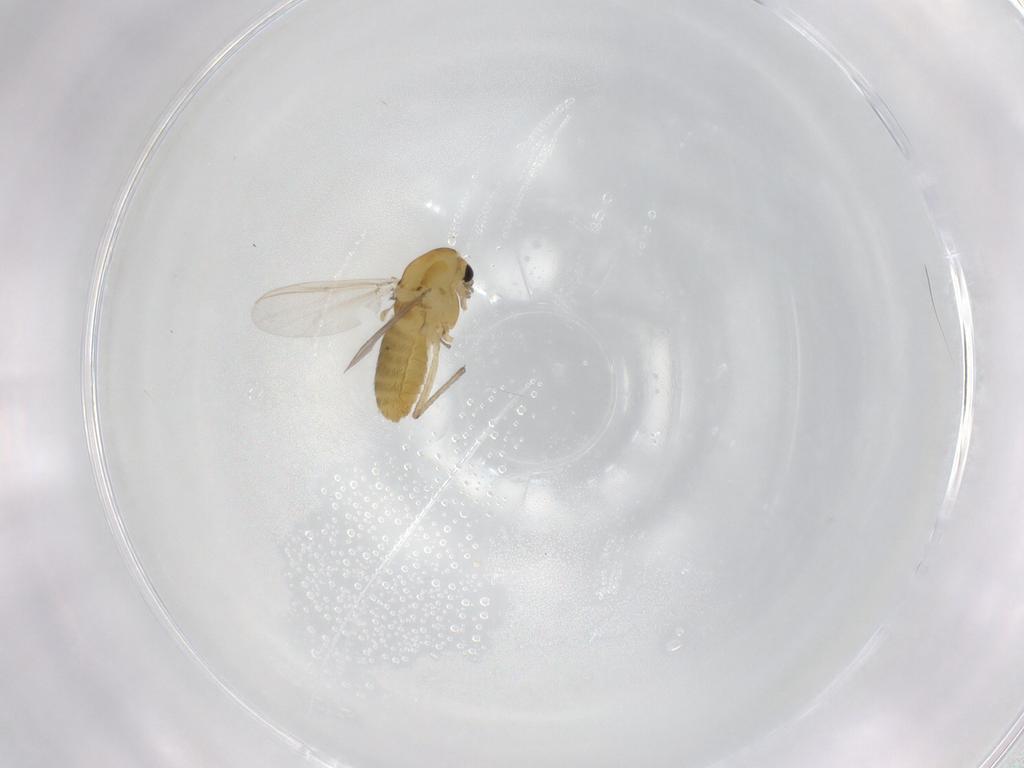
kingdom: Animalia
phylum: Arthropoda
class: Insecta
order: Diptera
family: Chironomidae
